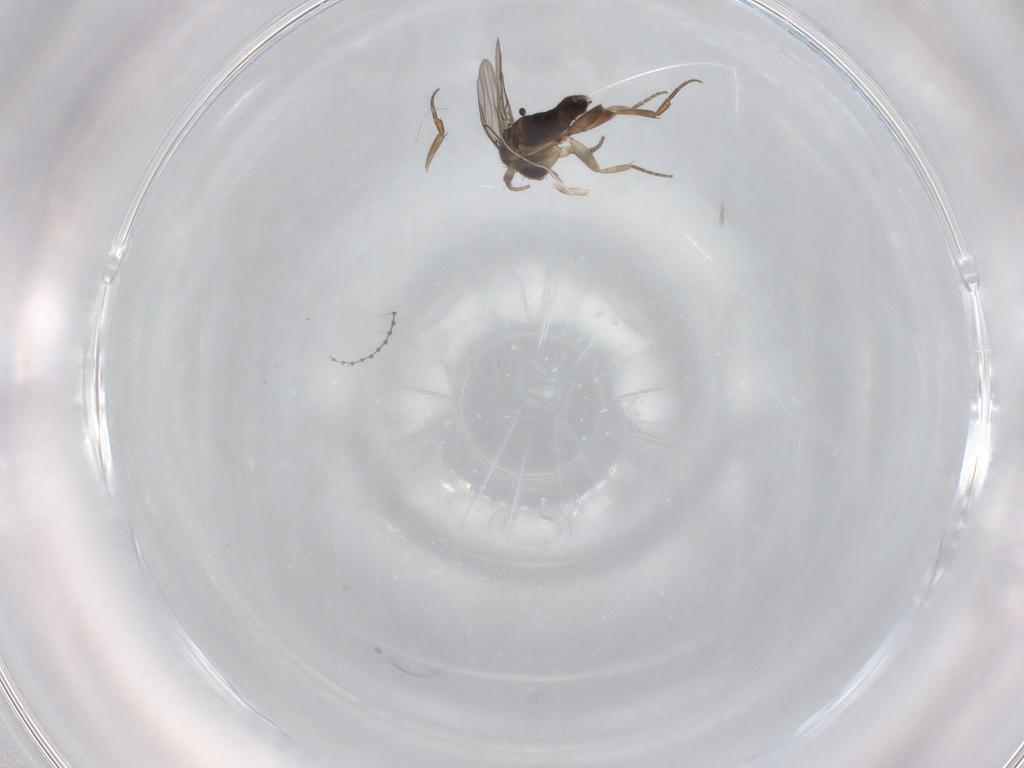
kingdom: Animalia
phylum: Arthropoda
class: Insecta
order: Diptera
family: Cecidomyiidae
